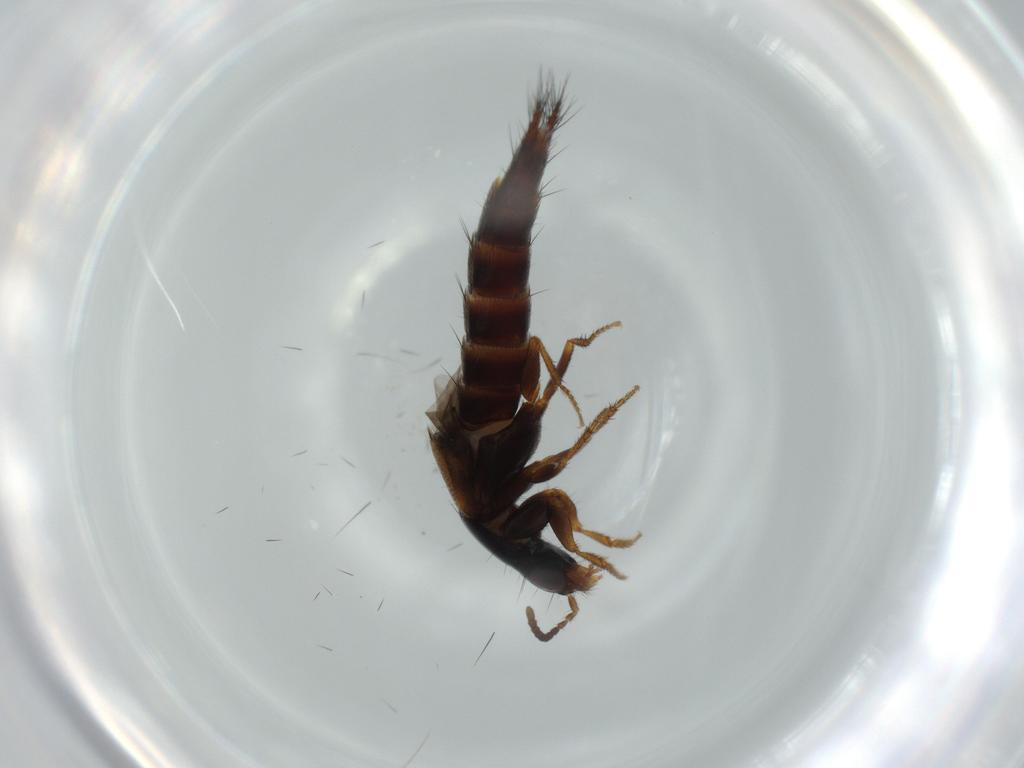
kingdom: Animalia
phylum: Arthropoda
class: Insecta
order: Coleoptera
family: Staphylinidae
